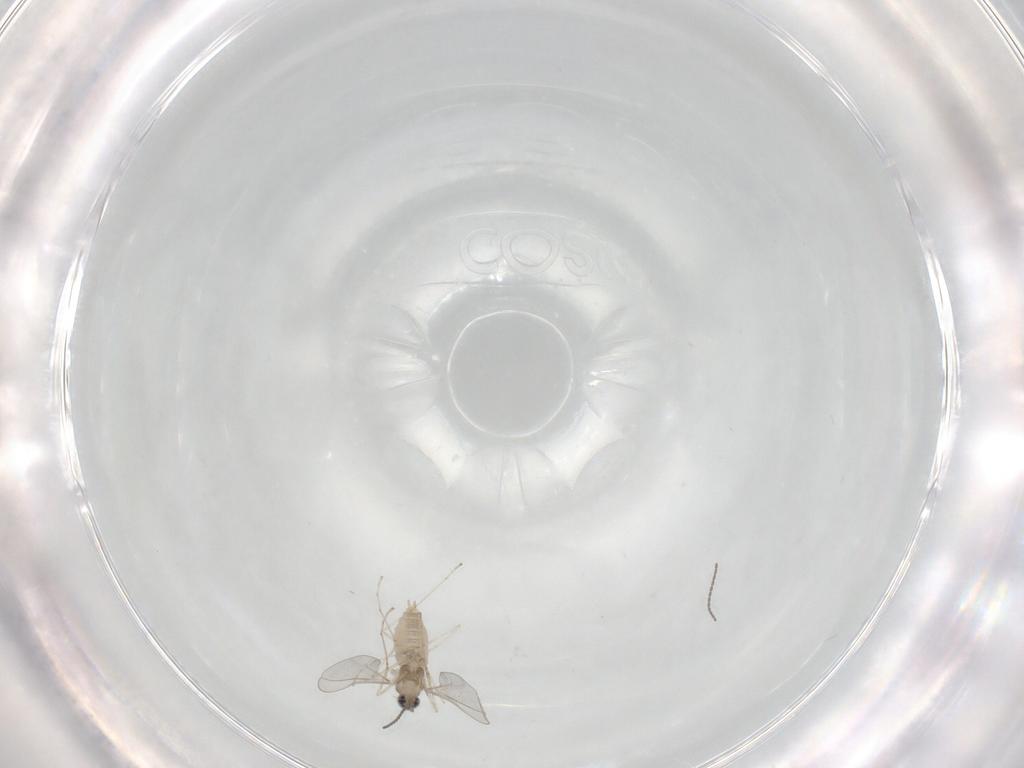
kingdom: Animalia
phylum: Arthropoda
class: Insecta
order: Diptera
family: Cecidomyiidae
